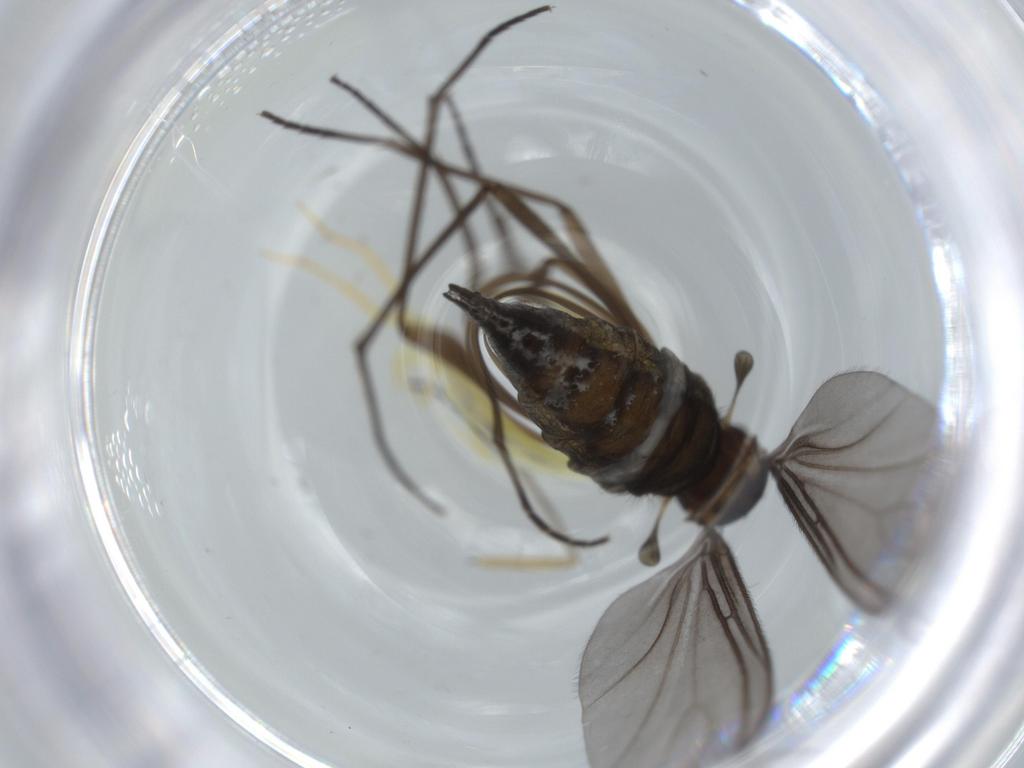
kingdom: Animalia
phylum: Arthropoda
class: Insecta
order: Diptera
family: Sciaridae
